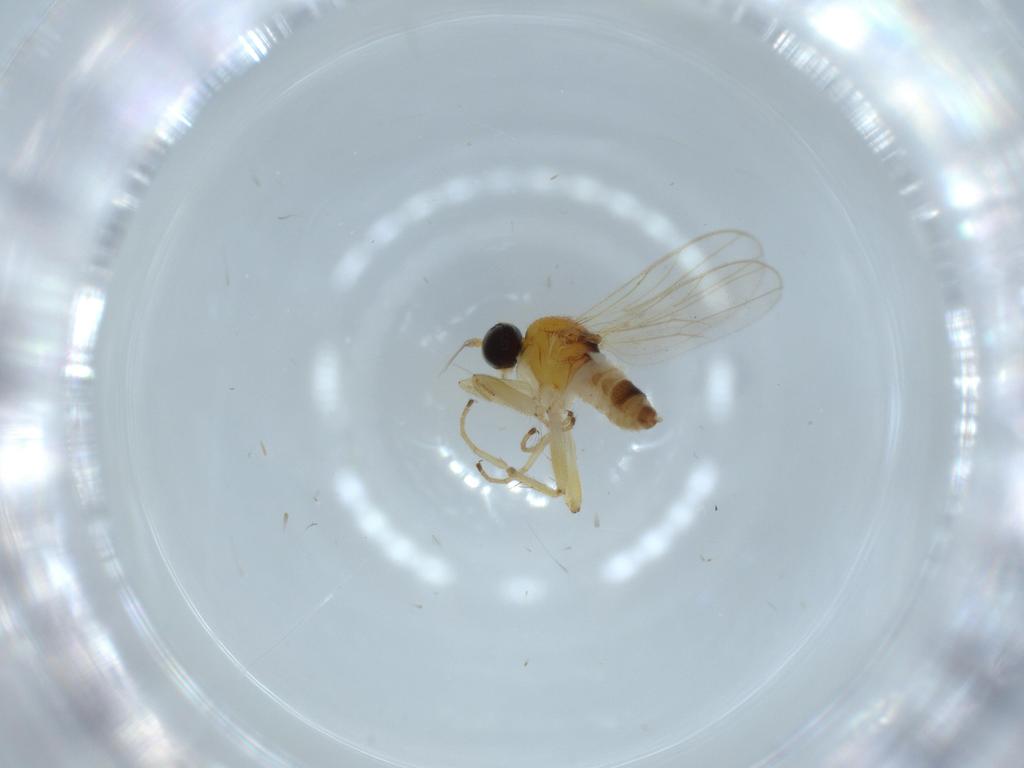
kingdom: Animalia
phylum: Arthropoda
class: Insecta
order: Diptera
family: Hybotidae
